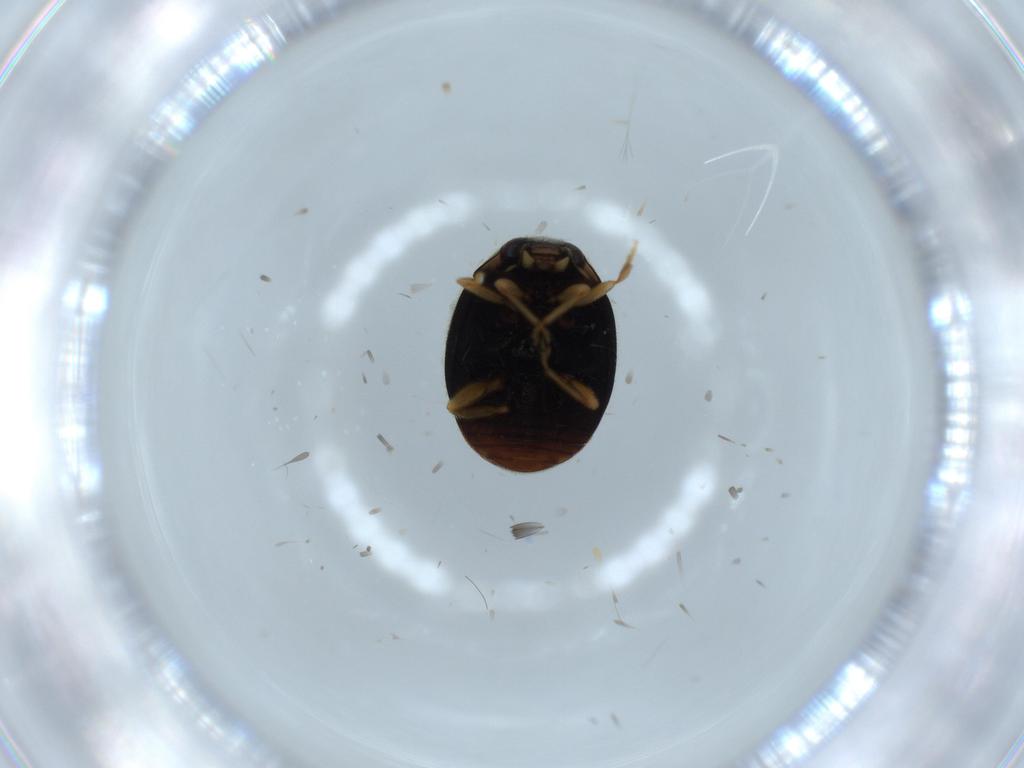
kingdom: Animalia
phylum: Arthropoda
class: Insecta
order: Coleoptera
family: Coccinellidae
